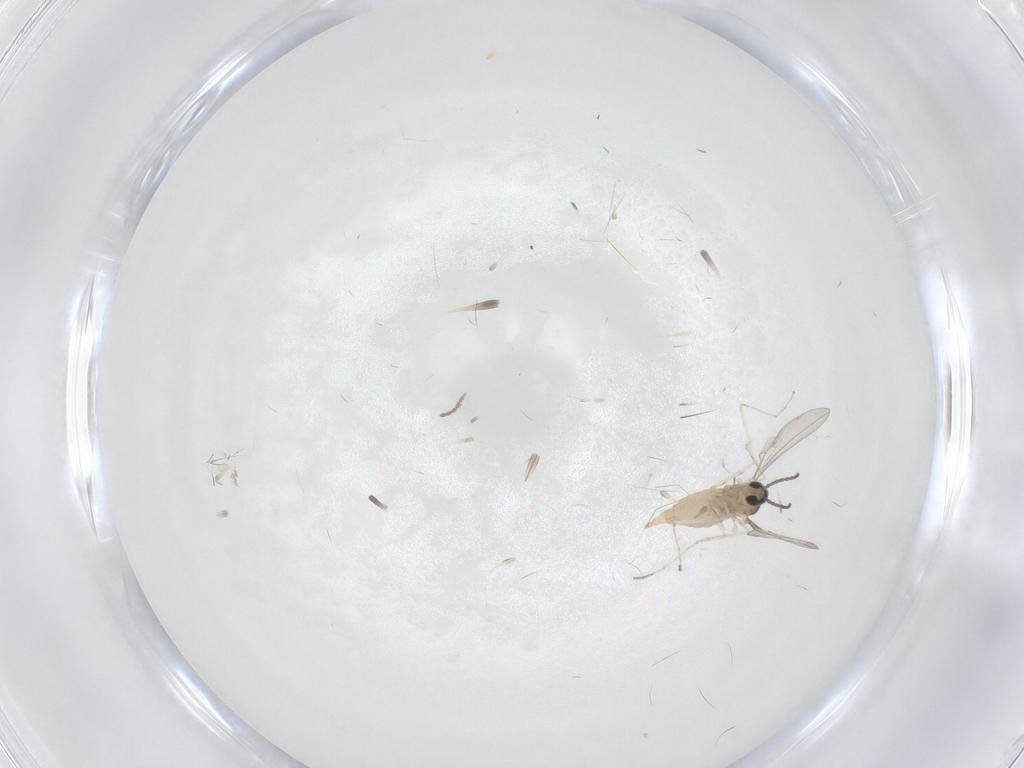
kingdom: Animalia
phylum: Arthropoda
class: Insecta
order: Diptera
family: Cecidomyiidae
